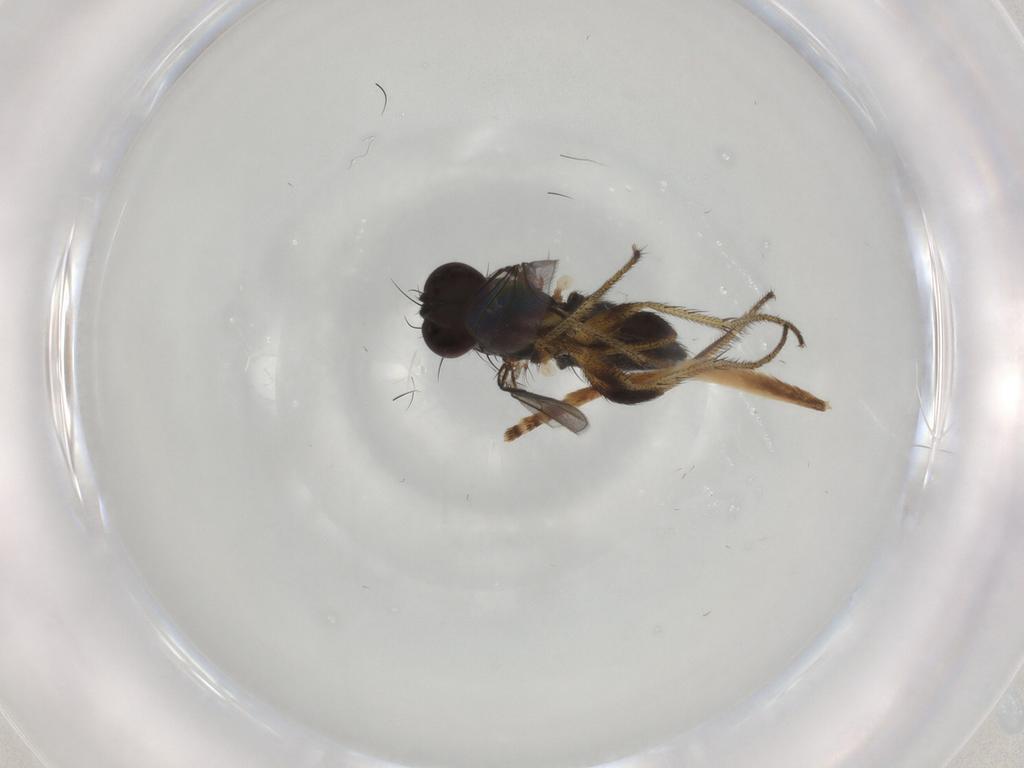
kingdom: Animalia
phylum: Arthropoda
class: Insecta
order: Diptera
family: Dolichopodidae
